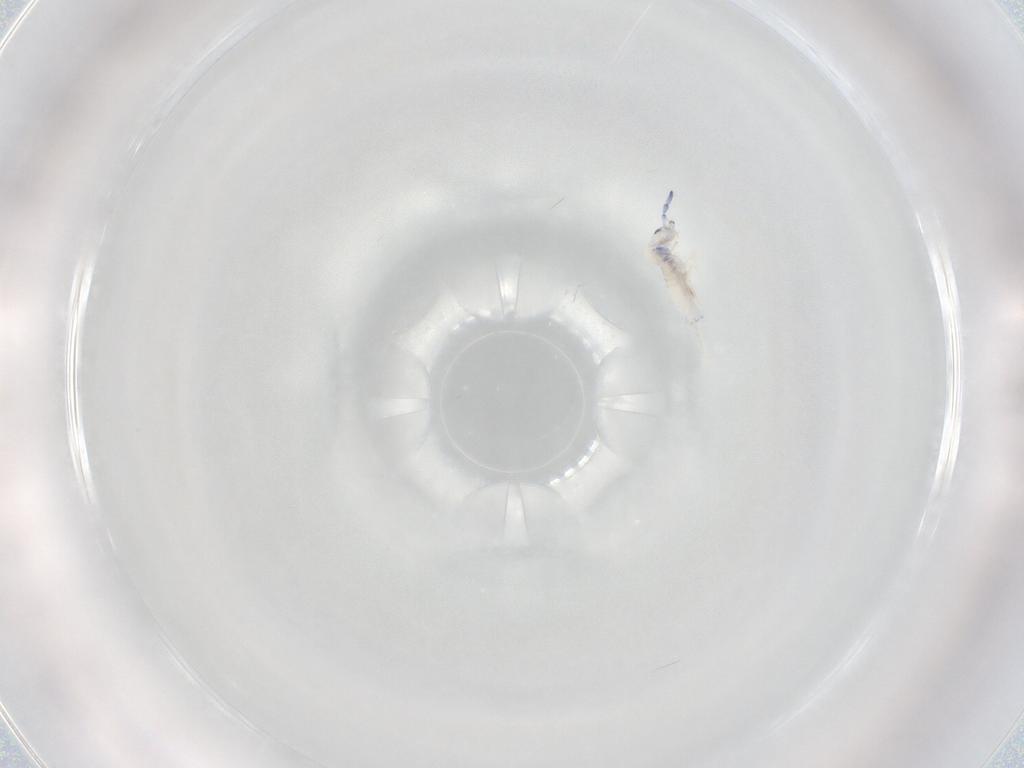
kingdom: Animalia
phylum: Arthropoda
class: Collembola
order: Entomobryomorpha
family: Entomobryidae
